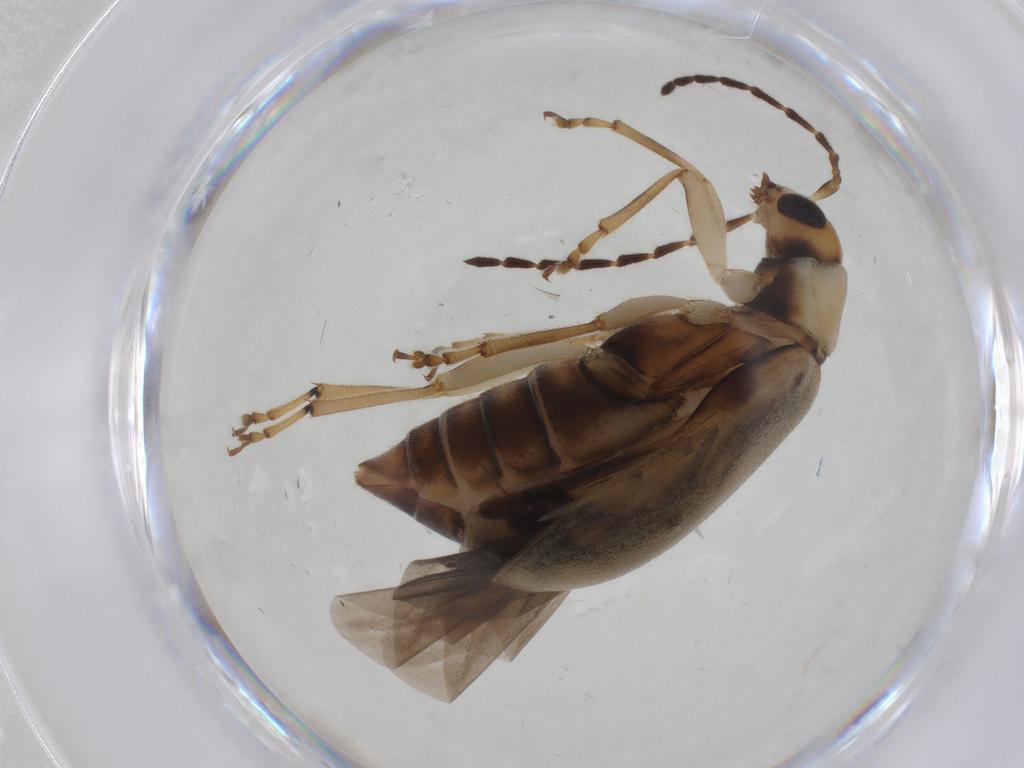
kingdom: Animalia
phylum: Arthropoda
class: Insecta
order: Coleoptera
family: Chrysomelidae
